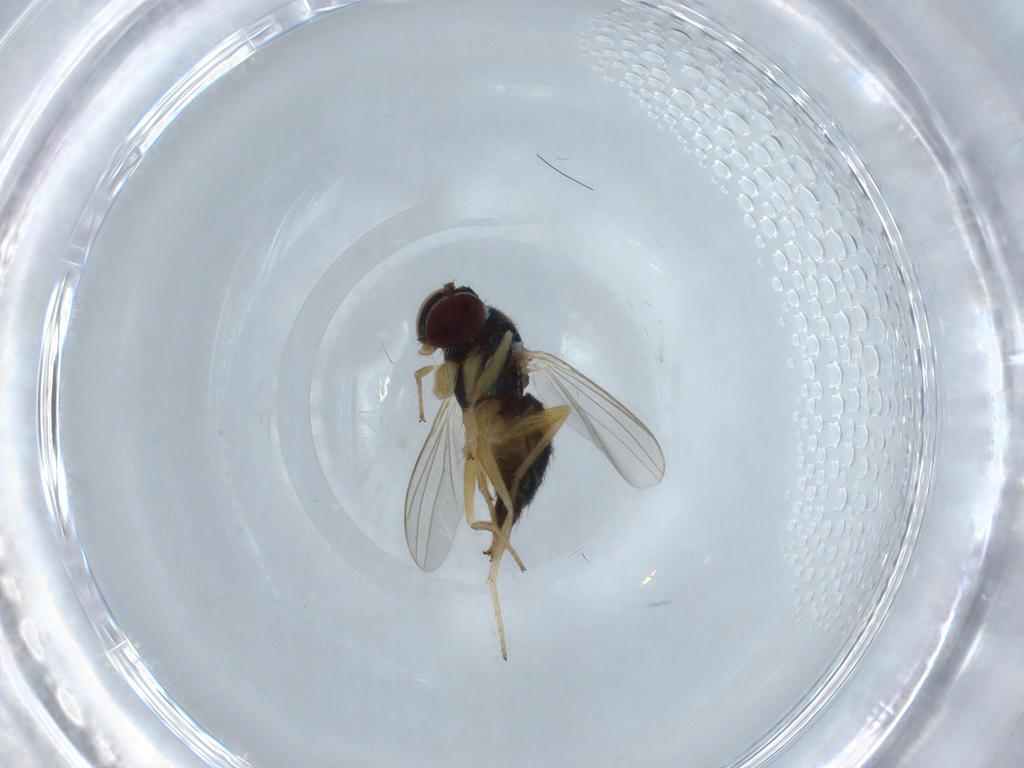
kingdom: Animalia
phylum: Arthropoda
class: Insecta
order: Diptera
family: Dolichopodidae
